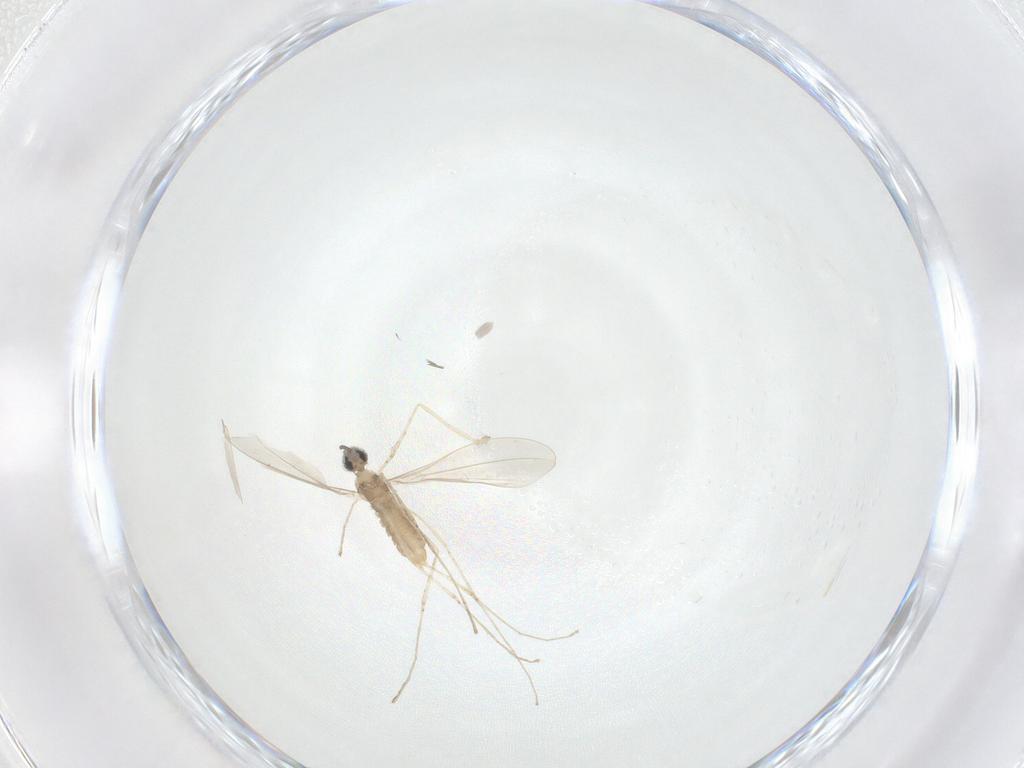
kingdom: Animalia
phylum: Arthropoda
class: Insecta
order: Diptera
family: Cecidomyiidae
